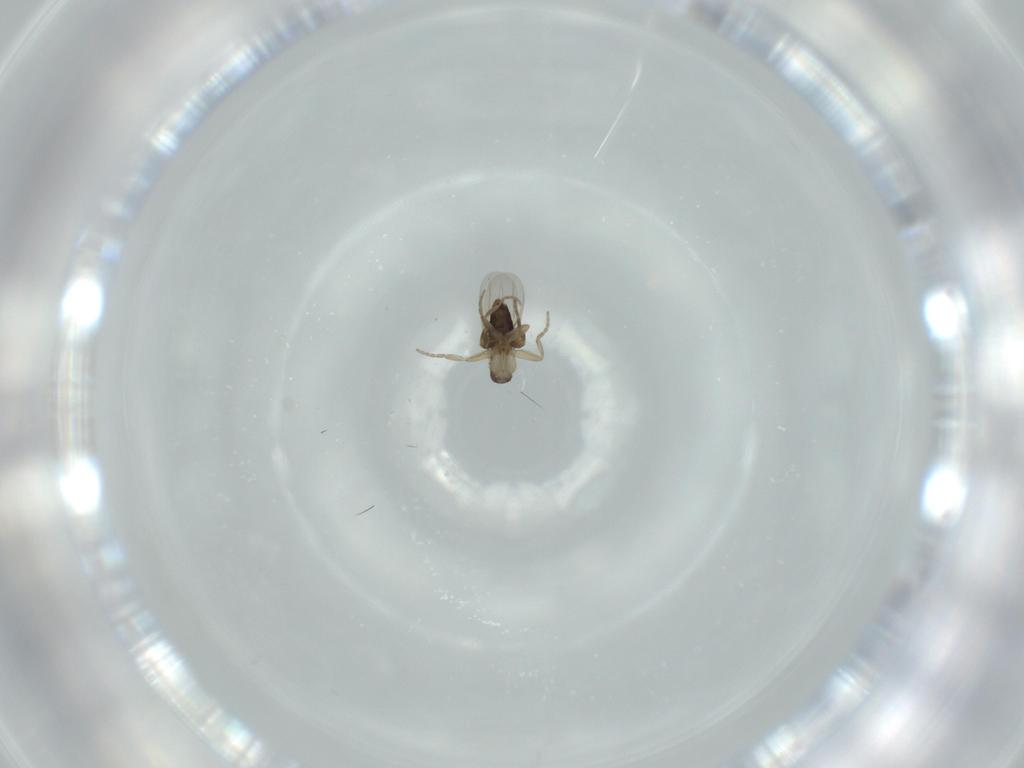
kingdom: Animalia
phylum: Arthropoda
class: Insecta
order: Diptera
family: Phoridae
